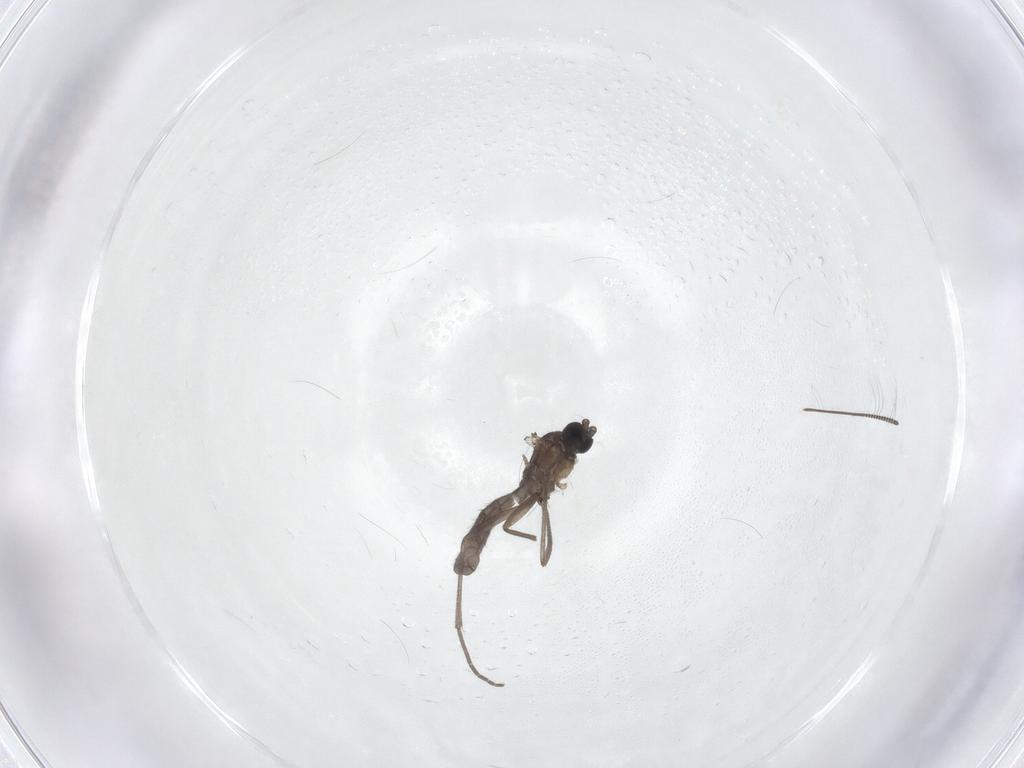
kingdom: Animalia
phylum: Arthropoda
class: Insecta
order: Diptera
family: Sciaridae
